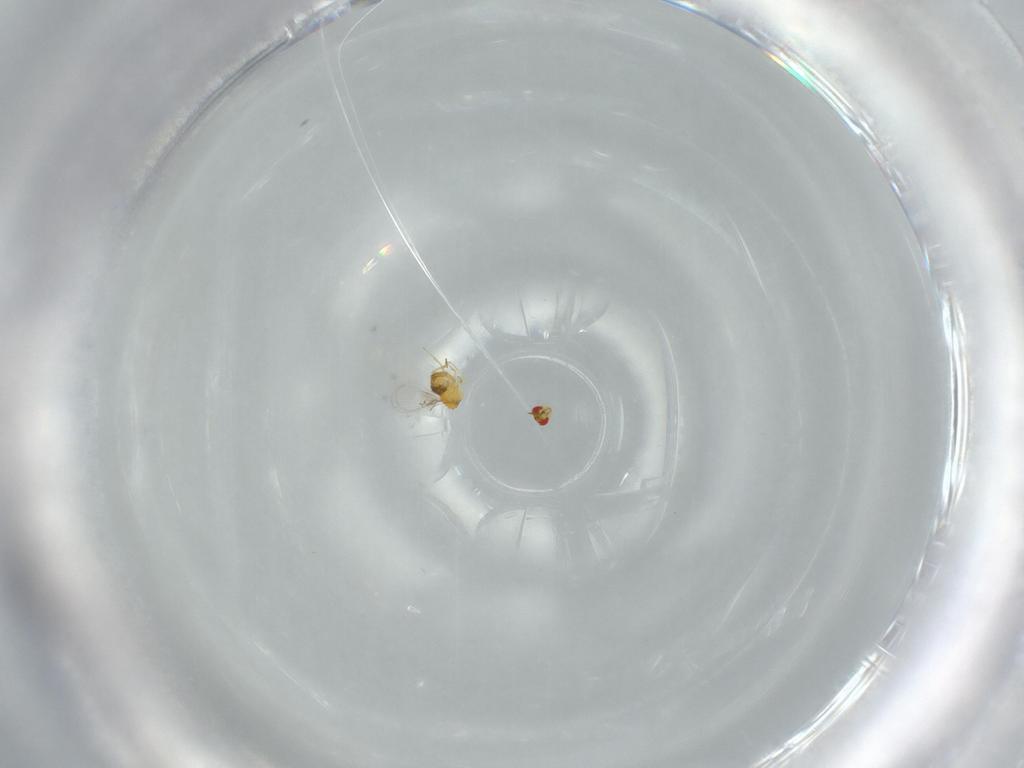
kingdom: Animalia
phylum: Arthropoda
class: Insecta
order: Hymenoptera
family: Trichogrammatidae
